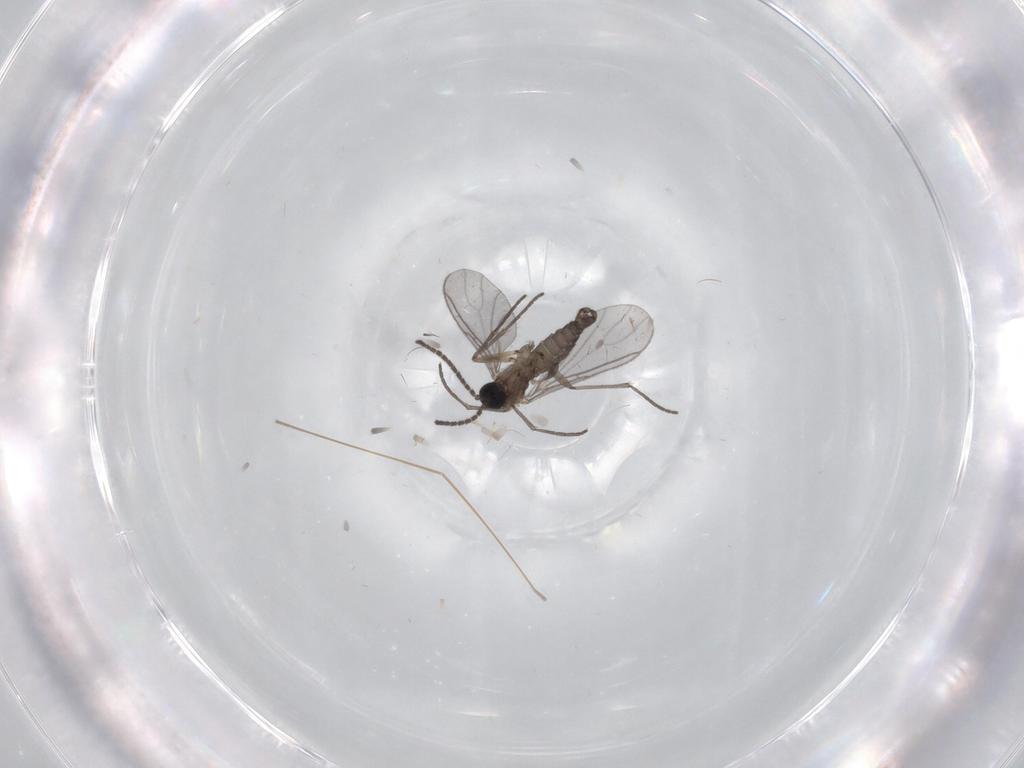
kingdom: Animalia
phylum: Arthropoda
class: Insecta
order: Diptera
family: Sciaridae
